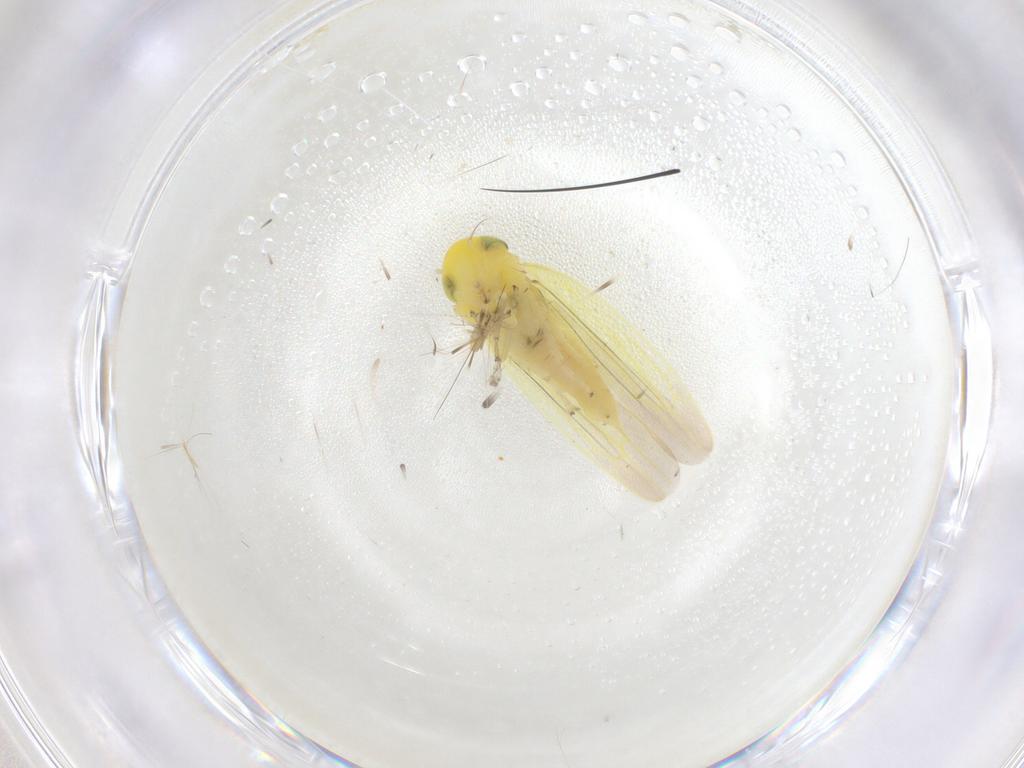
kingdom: Animalia
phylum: Arthropoda
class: Insecta
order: Hemiptera
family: Cicadellidae
